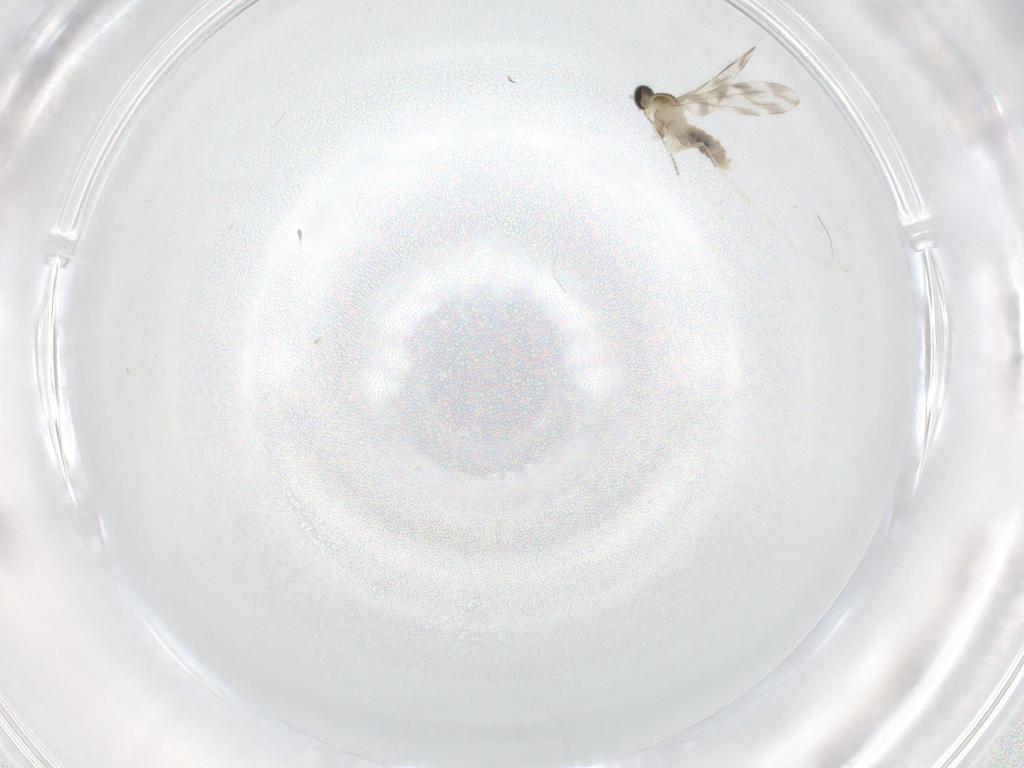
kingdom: Animalia
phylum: Arthropoda
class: Insecta
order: Diptera
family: Cecidomyiidae
